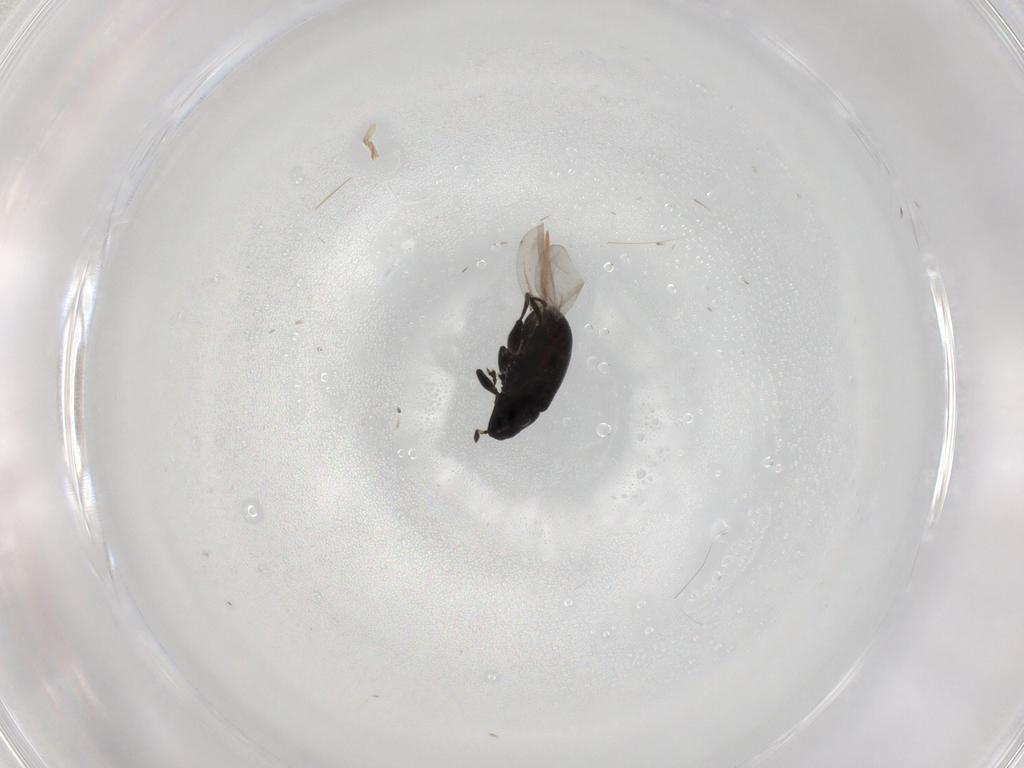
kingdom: Animalia
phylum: Arthropoda
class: Insecta
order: Coleoptera
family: Curculionidae
